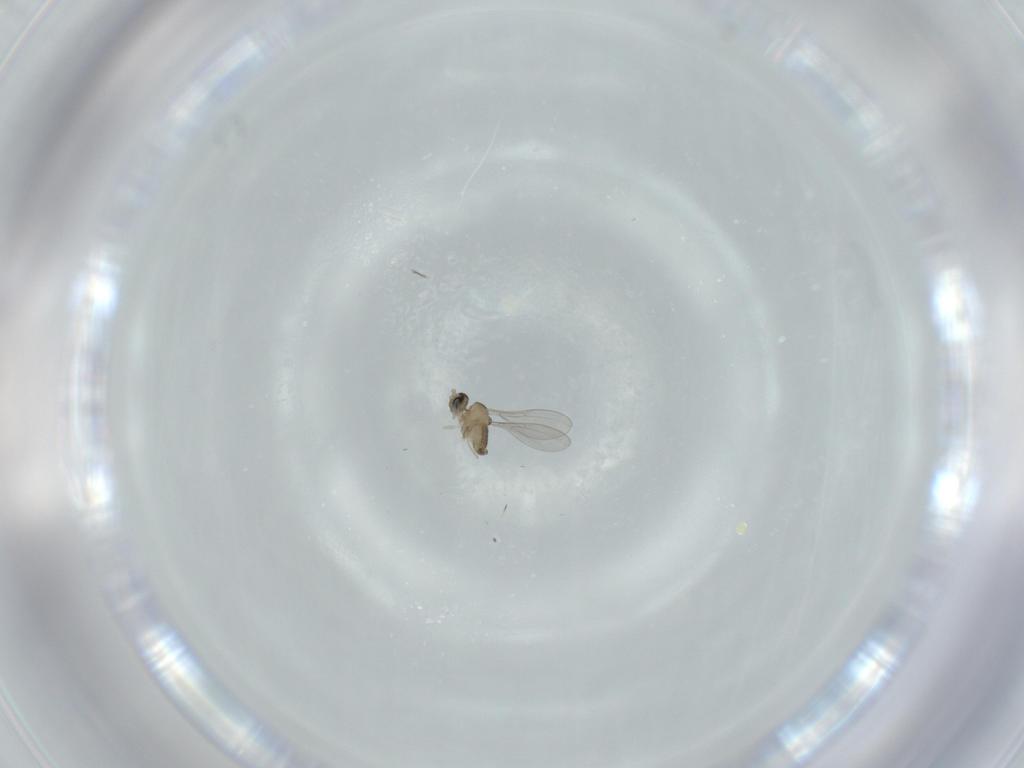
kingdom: Animalia
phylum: Arthropoda
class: Insecta
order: Diptera
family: Cecidomyiidae
